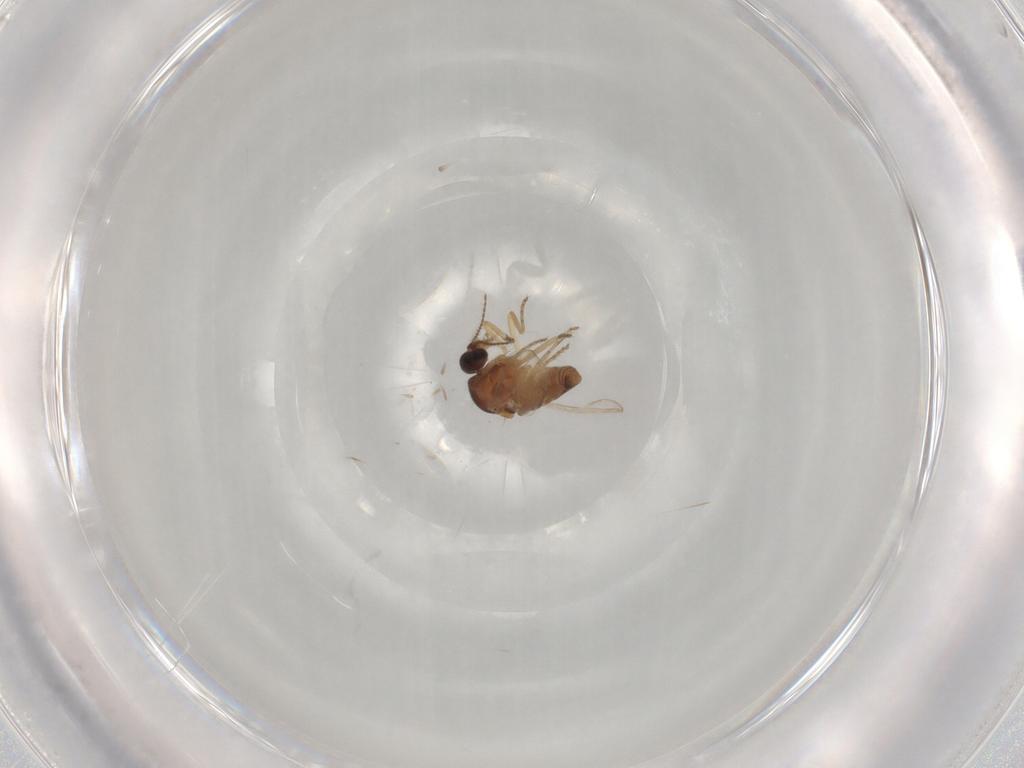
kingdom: Animalia
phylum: Arthropoda
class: Insecta
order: Diptera
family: Ceratopogonidae
